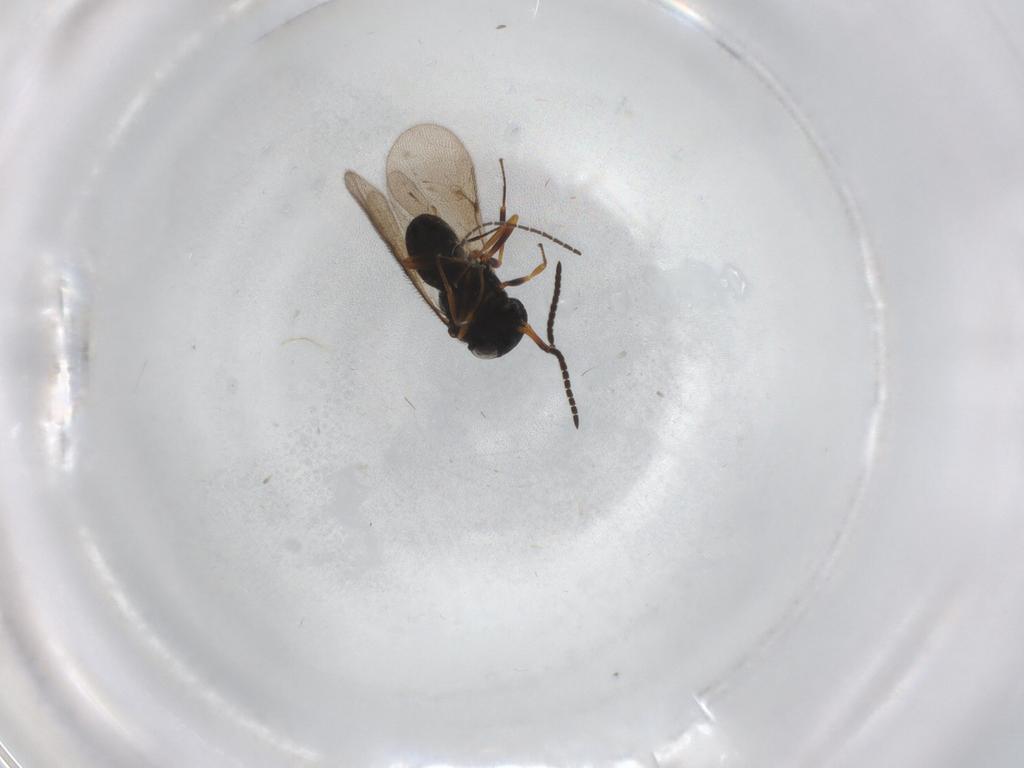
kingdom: Animalia
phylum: Arthropoda
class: Insecta
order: Hymenoptera
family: Scelionidae
